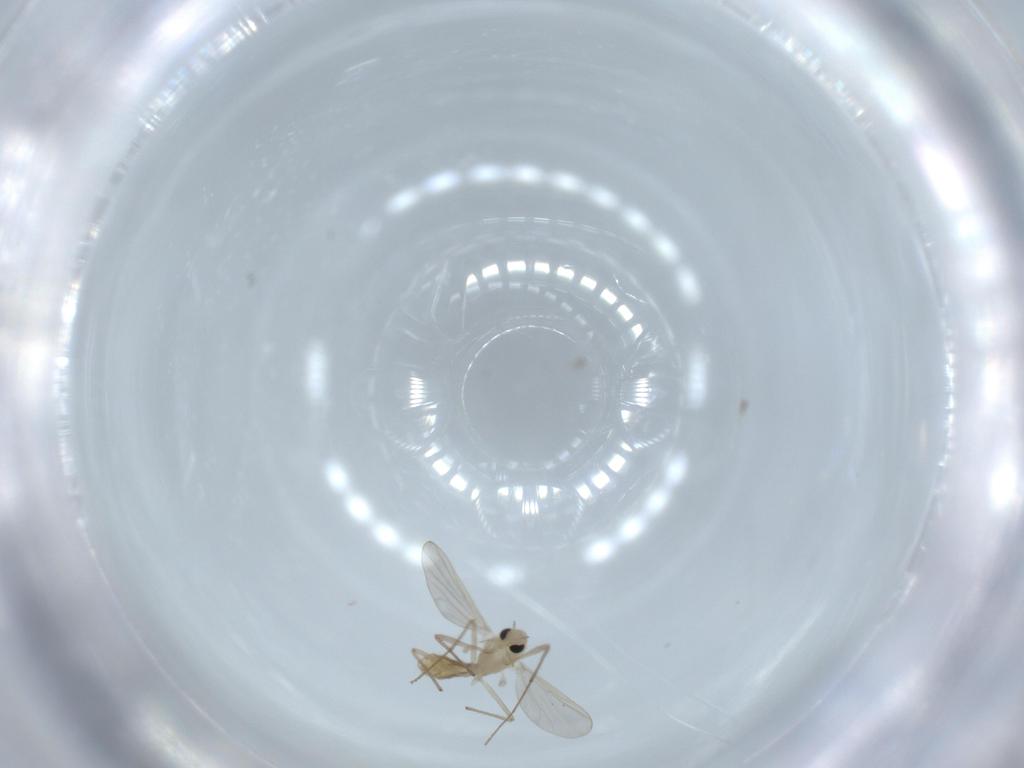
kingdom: Animalia
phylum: Arthropoda
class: Insecta
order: Diptera
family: Chironomidae
